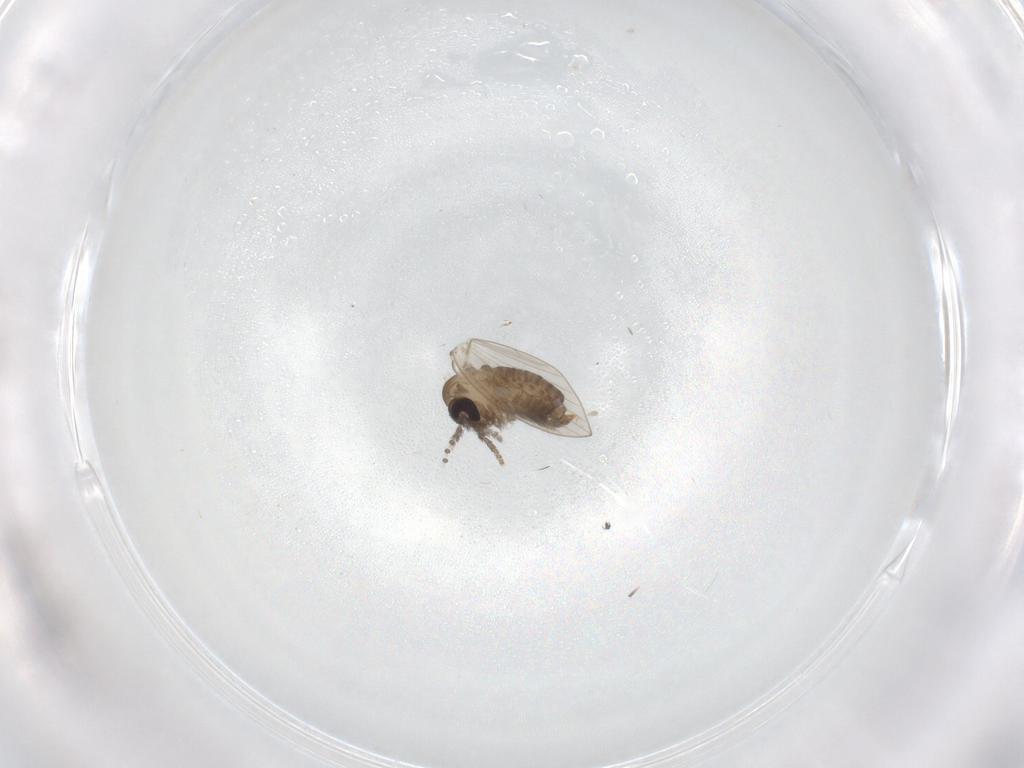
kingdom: Animalia
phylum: Arthropoda
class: Insecta
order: Diptera
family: Psychodidae
